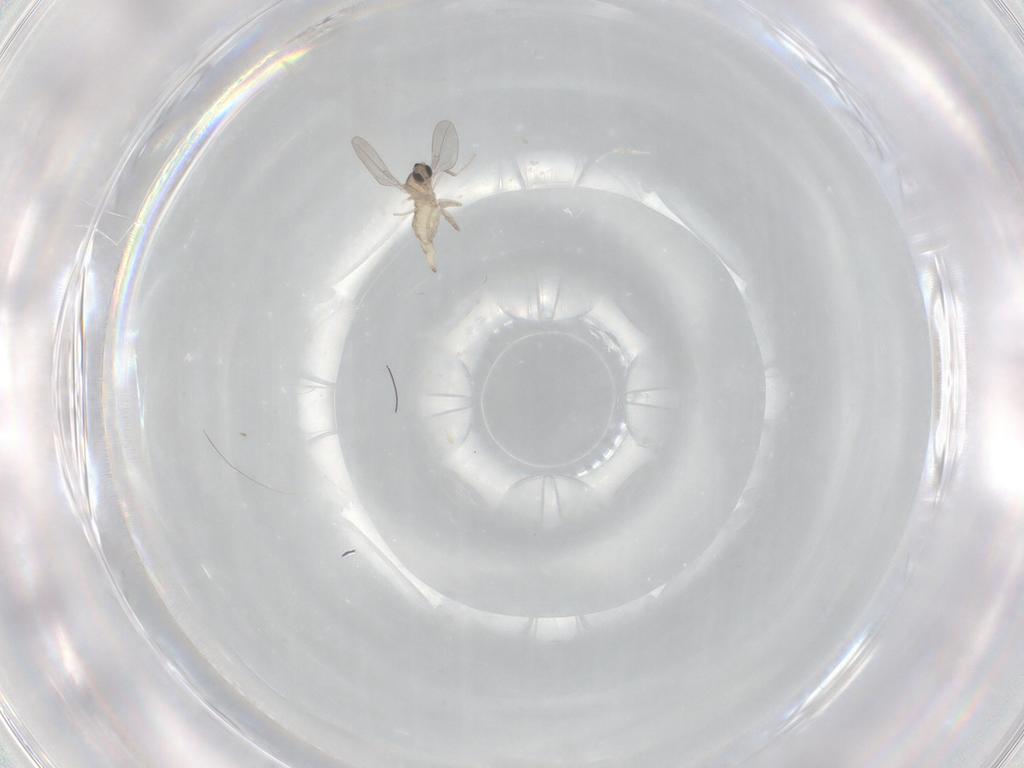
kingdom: Animalia
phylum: Arthropoda
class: Insecta
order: Diptera
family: Cecidomyiidae
